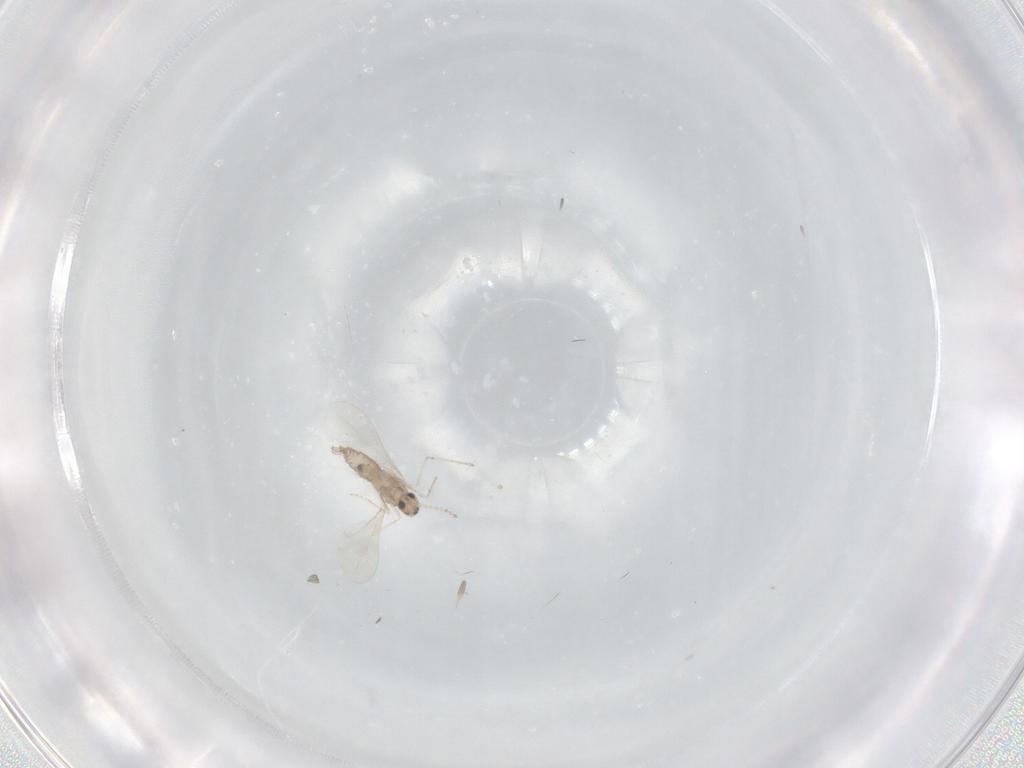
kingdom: Animalia
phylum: Arthropoda
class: Insecta
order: Diptera
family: Cecidomyiidae
